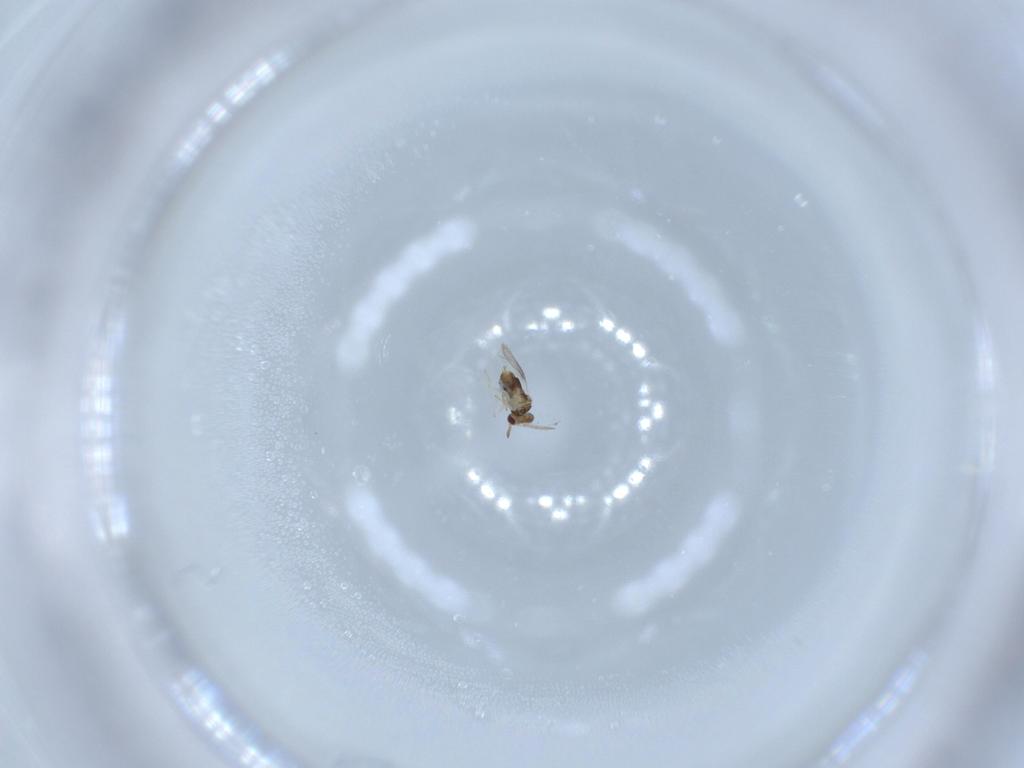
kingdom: Animalia
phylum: Arthropoda
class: Insecta
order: Hymenoptera
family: Aphelinidae
